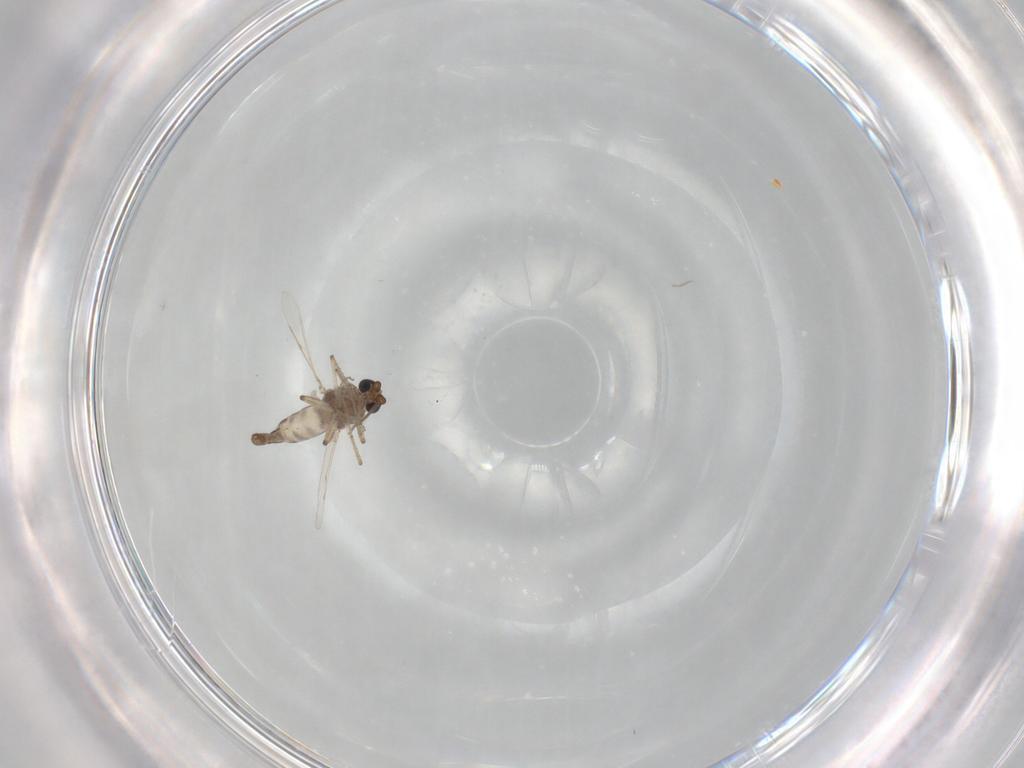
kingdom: Animalia
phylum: Arthropoda
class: Insecta
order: Diptera
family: Ceratopogonidae
